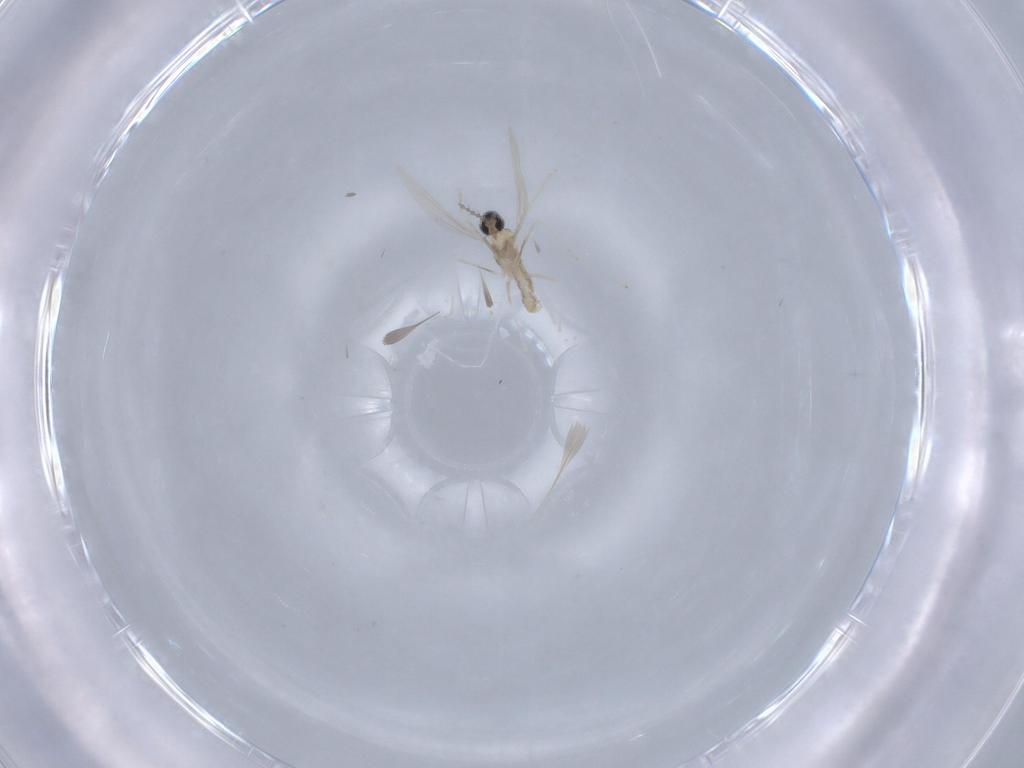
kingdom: Animalia
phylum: Arthropoda
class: Insecta
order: Diptera
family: Cecidomyiidae
